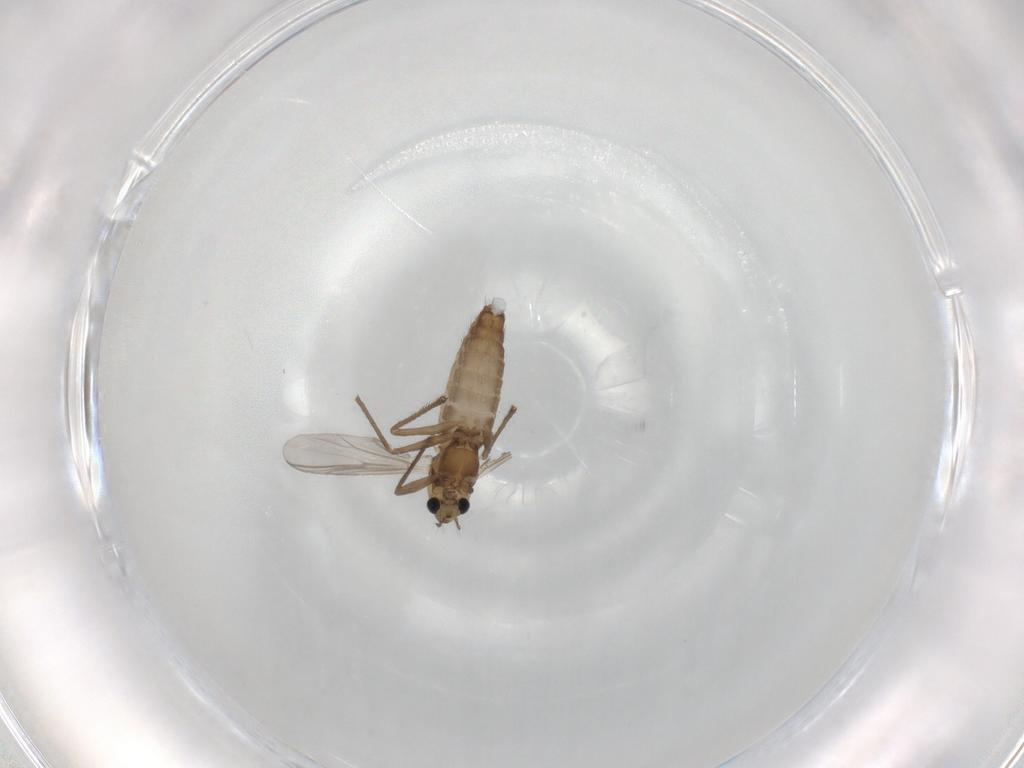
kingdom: Animalia
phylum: Arthropoda
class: Insecta
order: Diptera
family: Chironomidae
